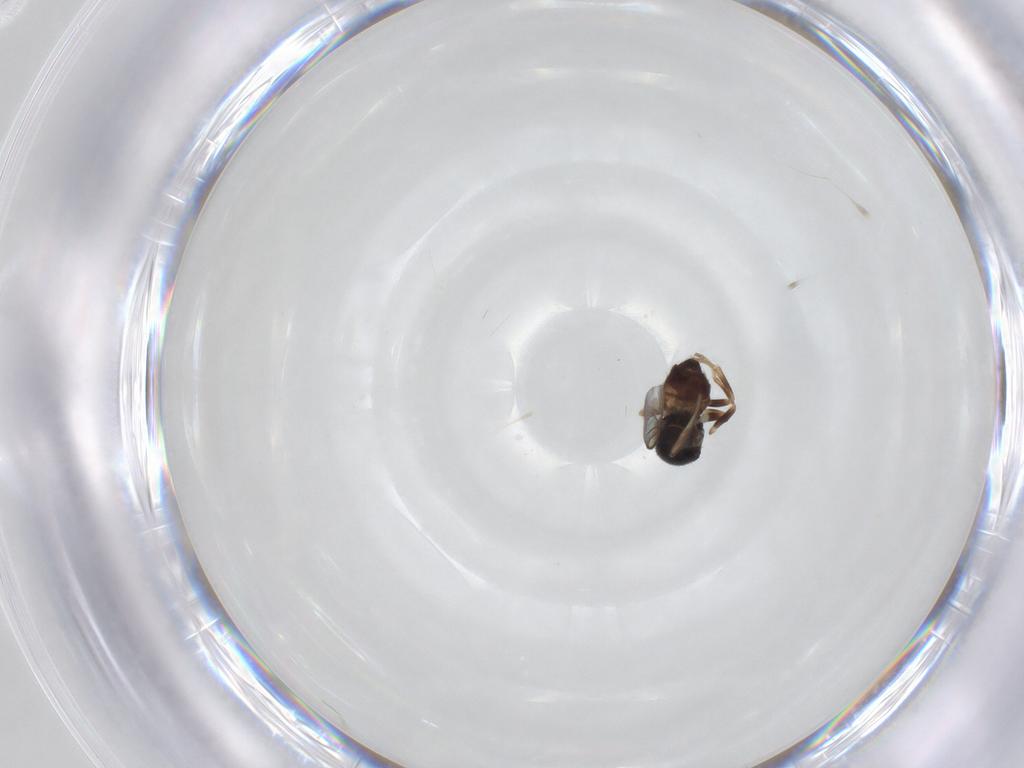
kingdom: Animalia
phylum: Arthropoda
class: Insecta
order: Diptera
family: Chloropidae
